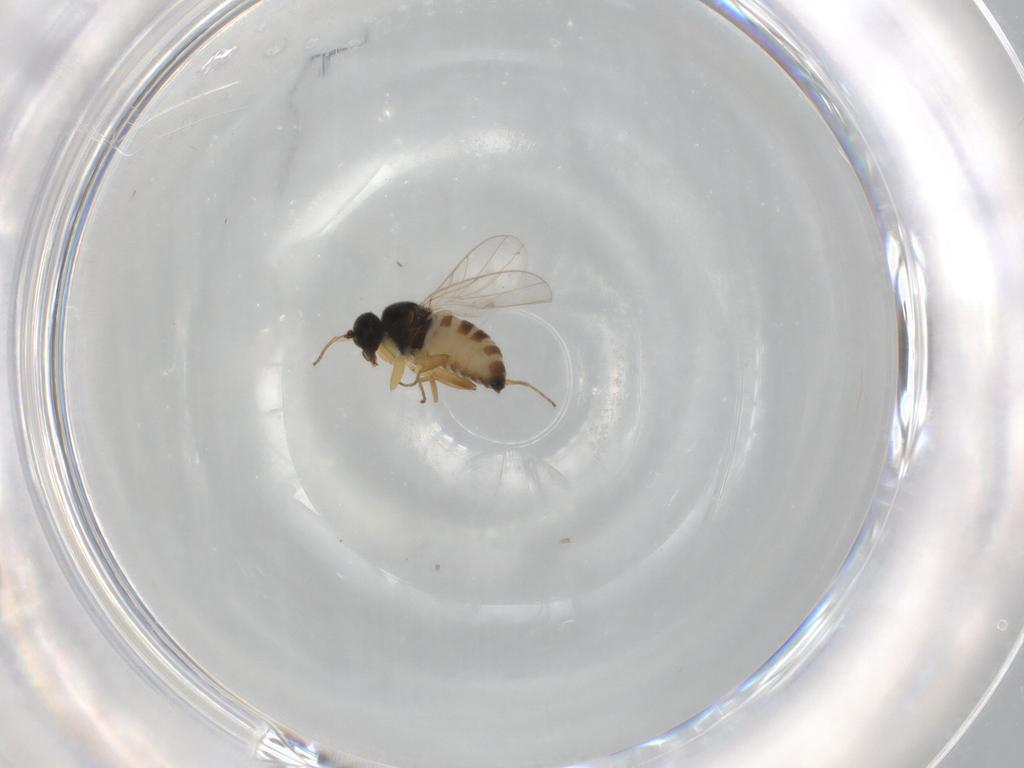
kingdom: Animalia
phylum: Arthropoda
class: Insecta
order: Diptera
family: Hybotidae
